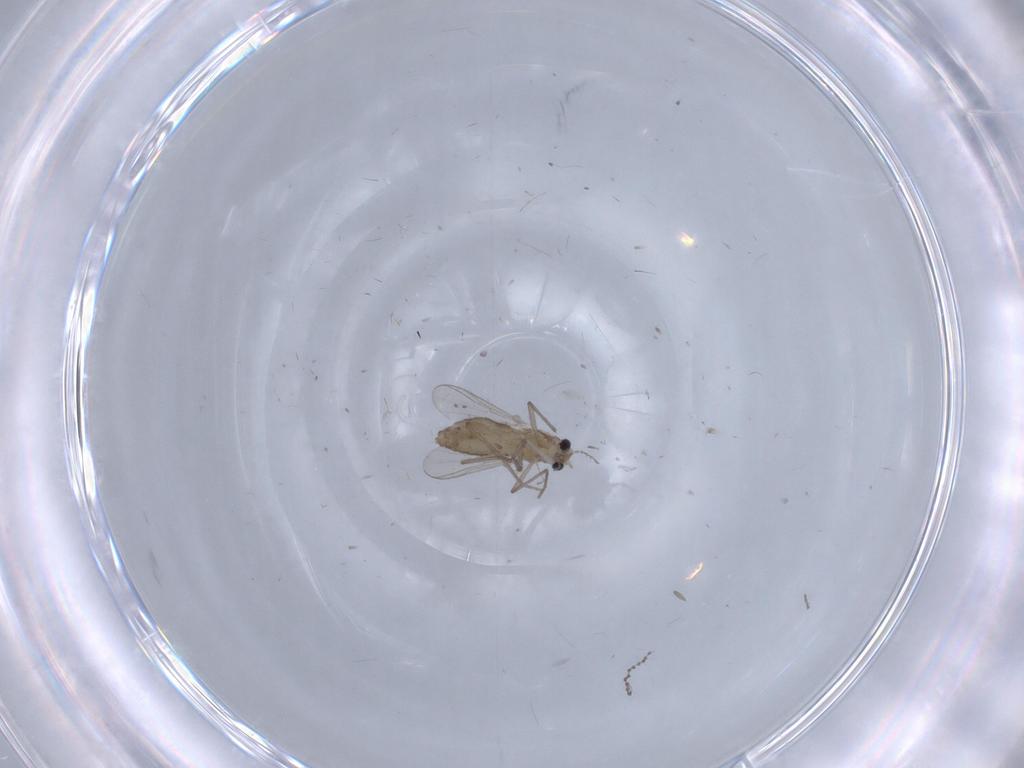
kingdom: Animalia
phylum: Arthropoda
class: Insecta
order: Diptera
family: Chironomidae
